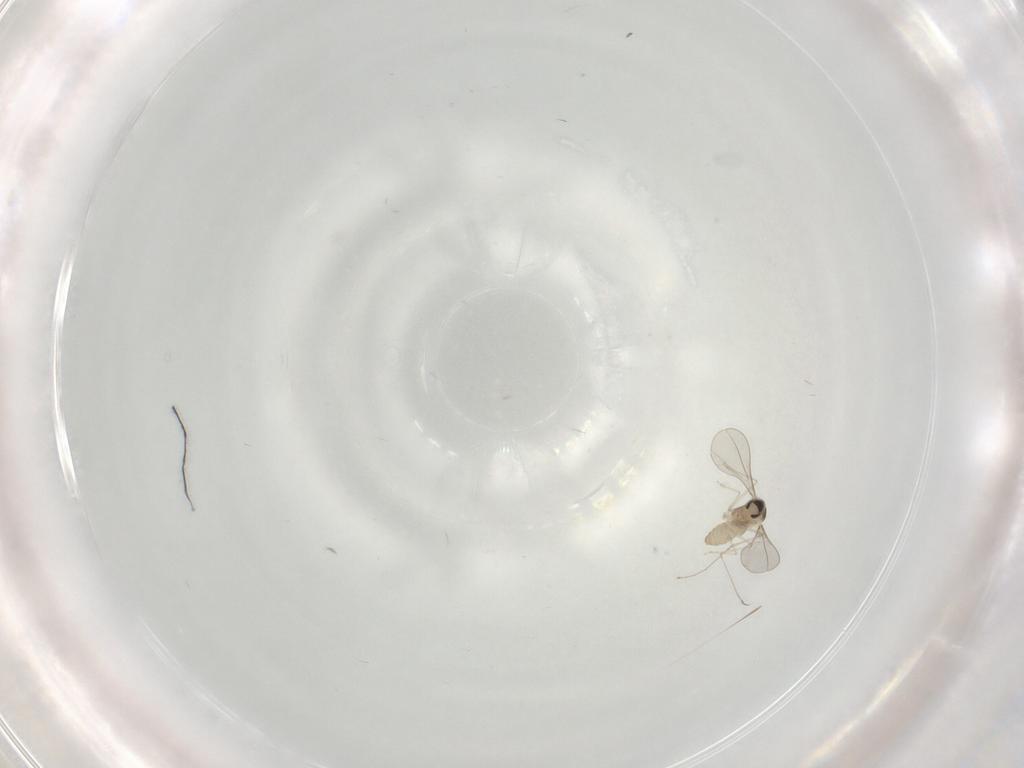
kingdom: Animalia
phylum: Arthropoda
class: Insecta
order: Diptera
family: Cecidomyiidae
